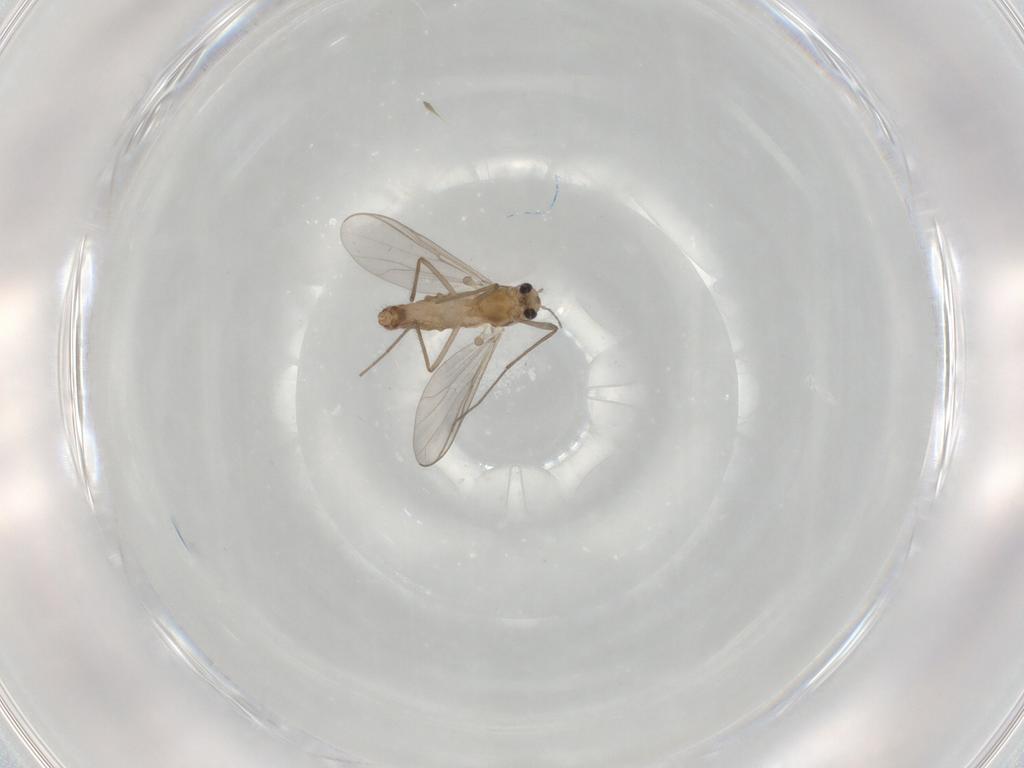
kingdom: Animalia
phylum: Arthropoda
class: Insecta
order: Diptera
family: Chironomidae
